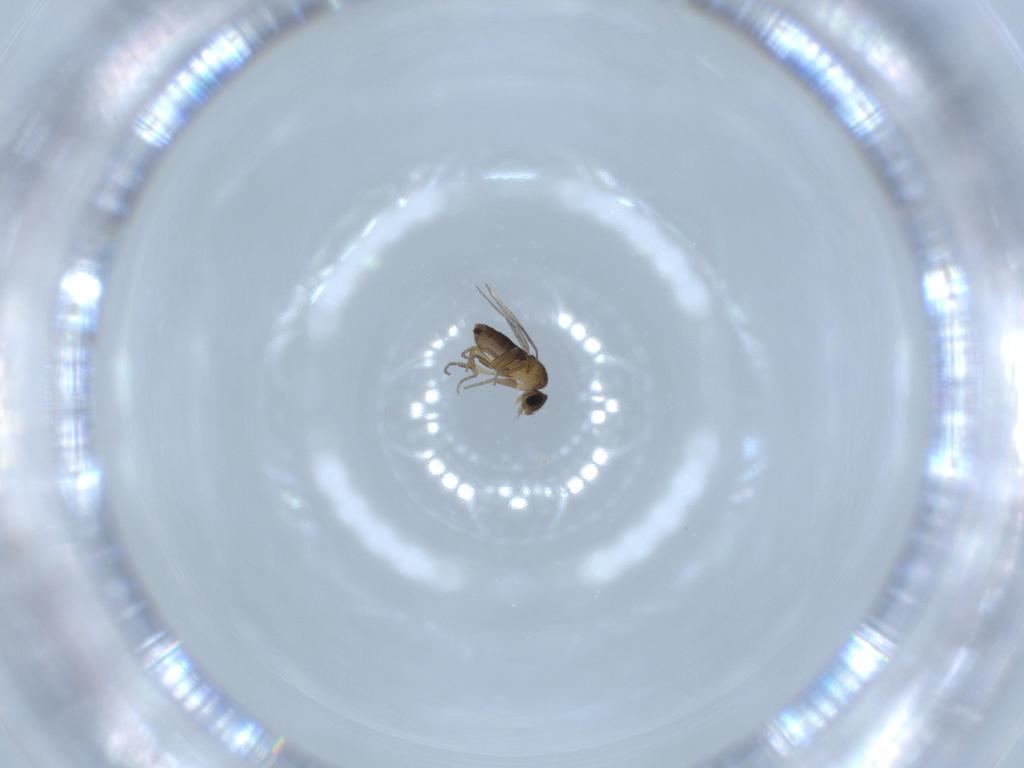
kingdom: Animalia
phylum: Arthropoda
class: Insecta
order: Diptera
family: Phoridae
